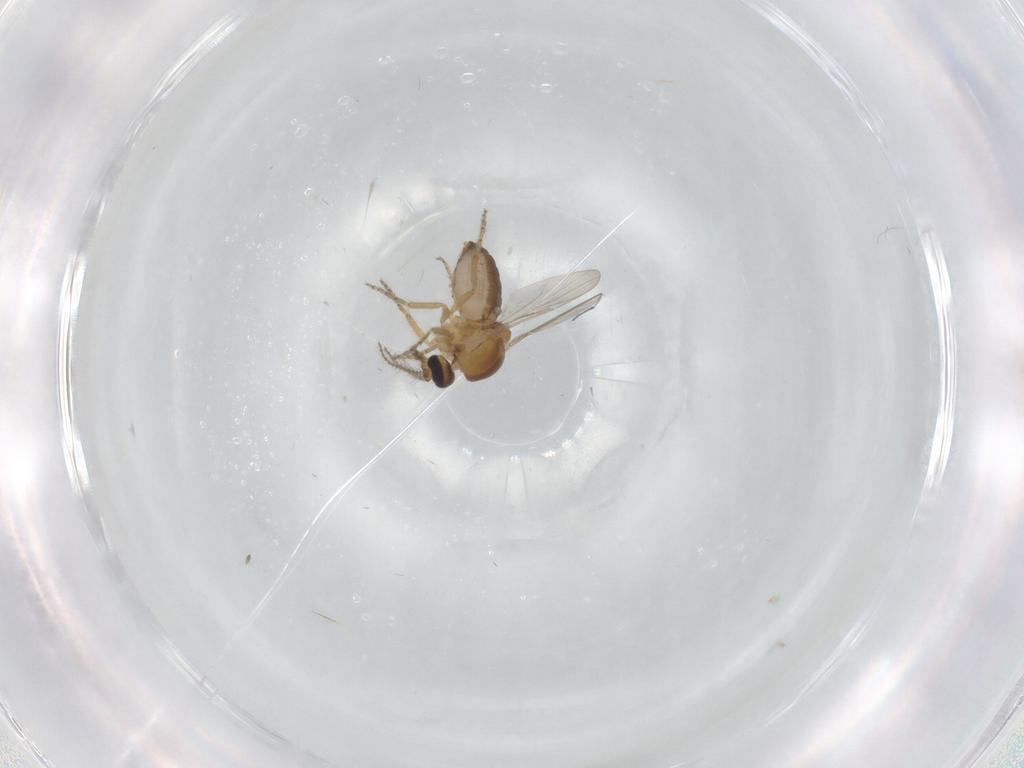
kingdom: Animalia
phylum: Arthropoda
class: Insecta
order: Diptera
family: Ceratopogonidae
